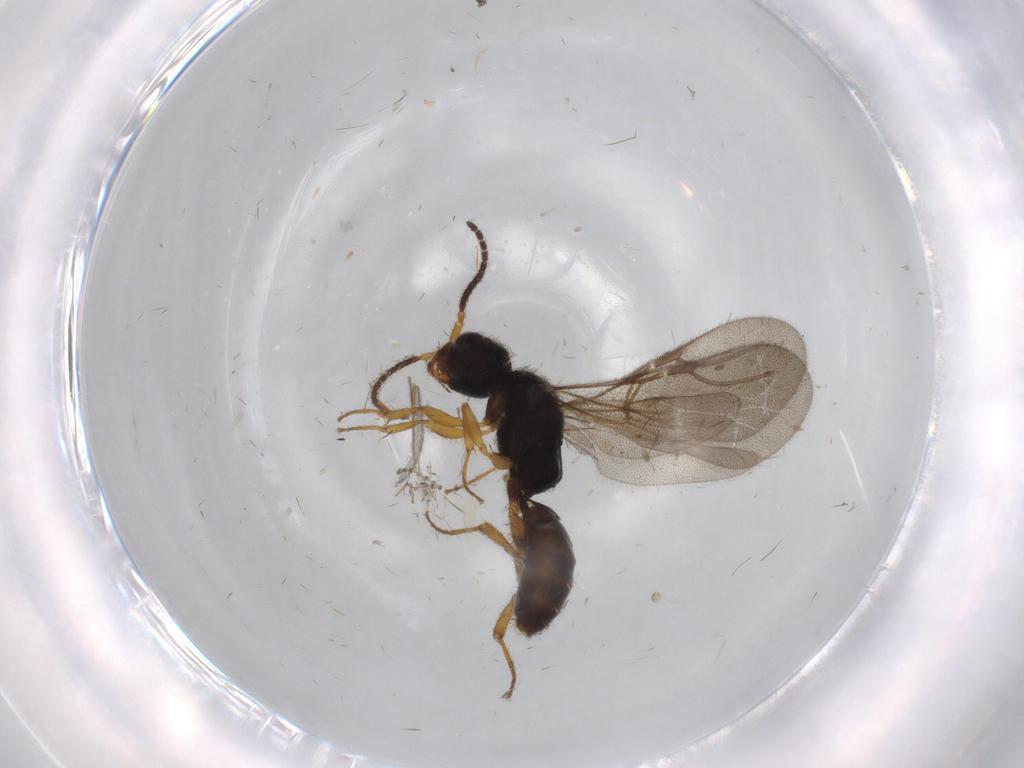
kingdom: Animalia
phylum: Arthropoda
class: Insecta
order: Hymenoptera
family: Bethylidae
